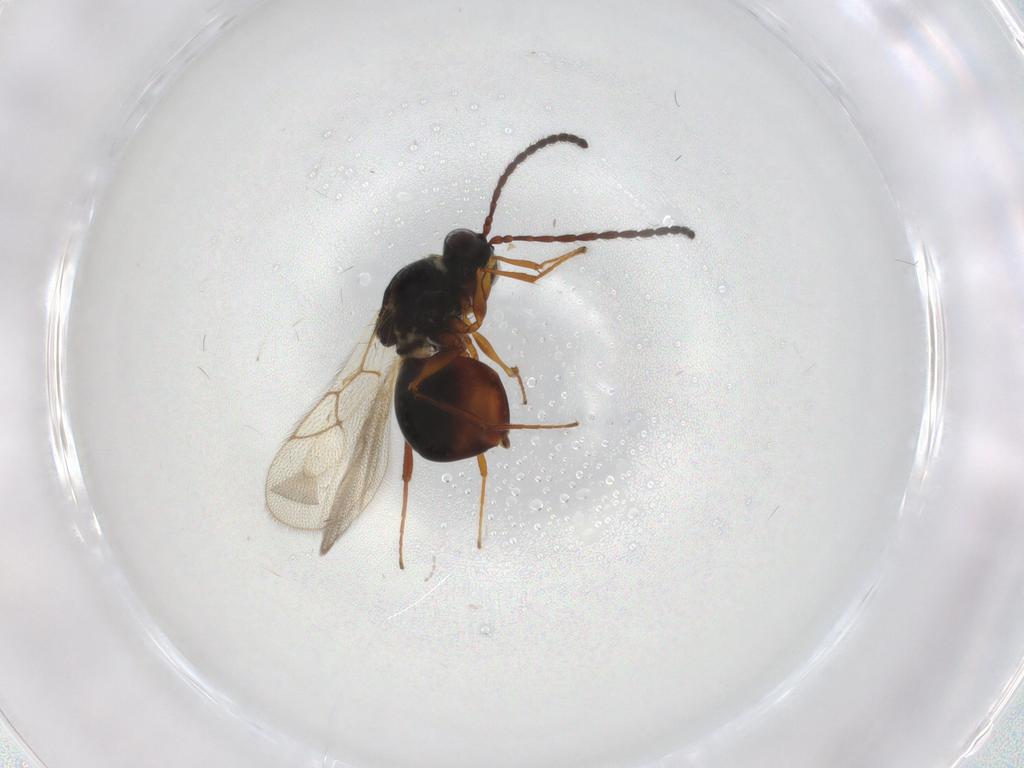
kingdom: Animalia
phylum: Arthropoda
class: Insecta
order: Hymenoptera
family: Figitidae
